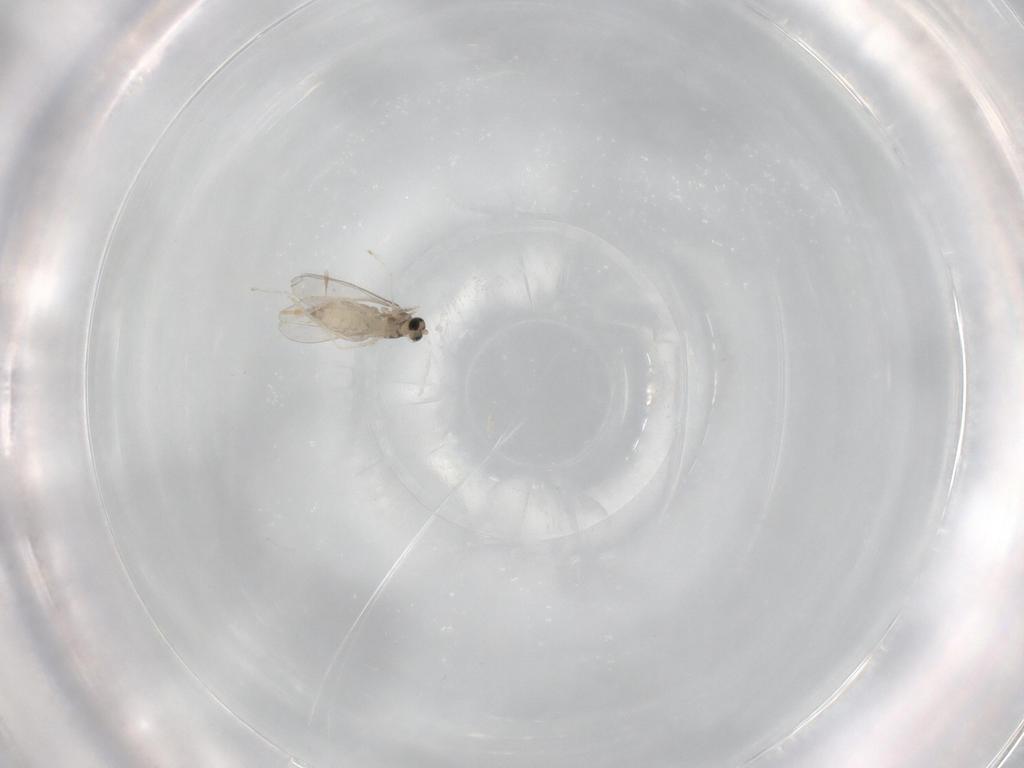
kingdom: Animalia
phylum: Arthropoda
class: Insecta
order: Diptera
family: Cecidomyiidae
